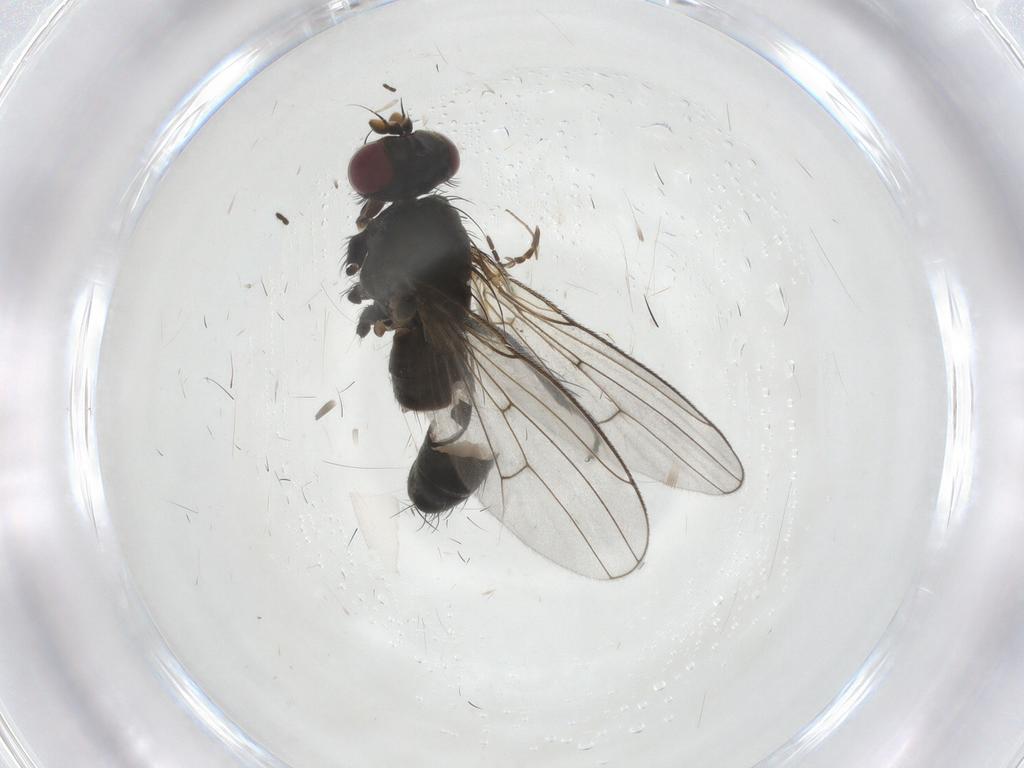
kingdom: Animalia
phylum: Arthropoda
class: Insecta
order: Diptera
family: Muscidae
